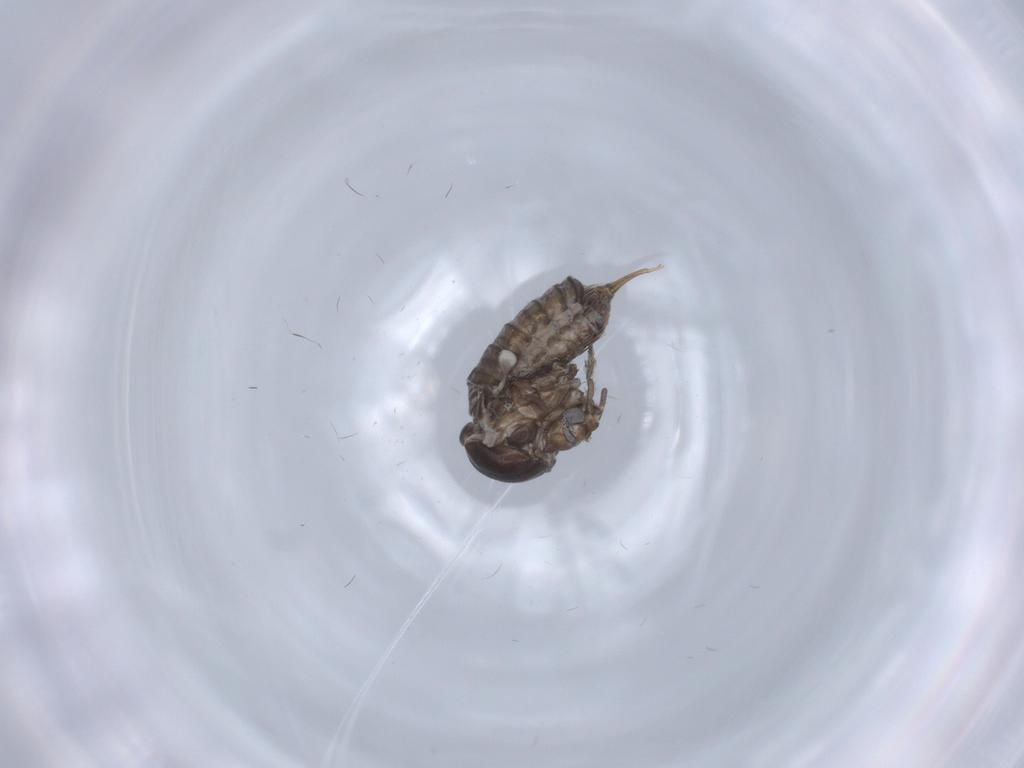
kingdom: Animalia
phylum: Arthropoda
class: Insecta
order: Diptera
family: Psychodidae
